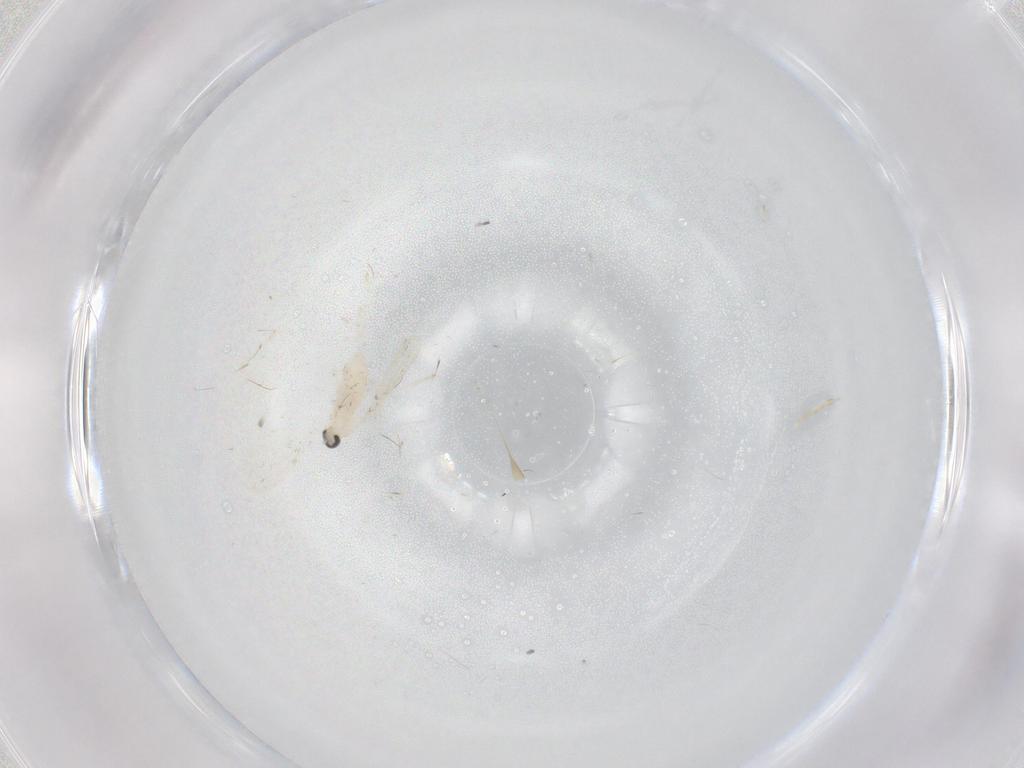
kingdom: Animalia
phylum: Arthropoda
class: Insecta
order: Diptera
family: Cecidomyiidae
